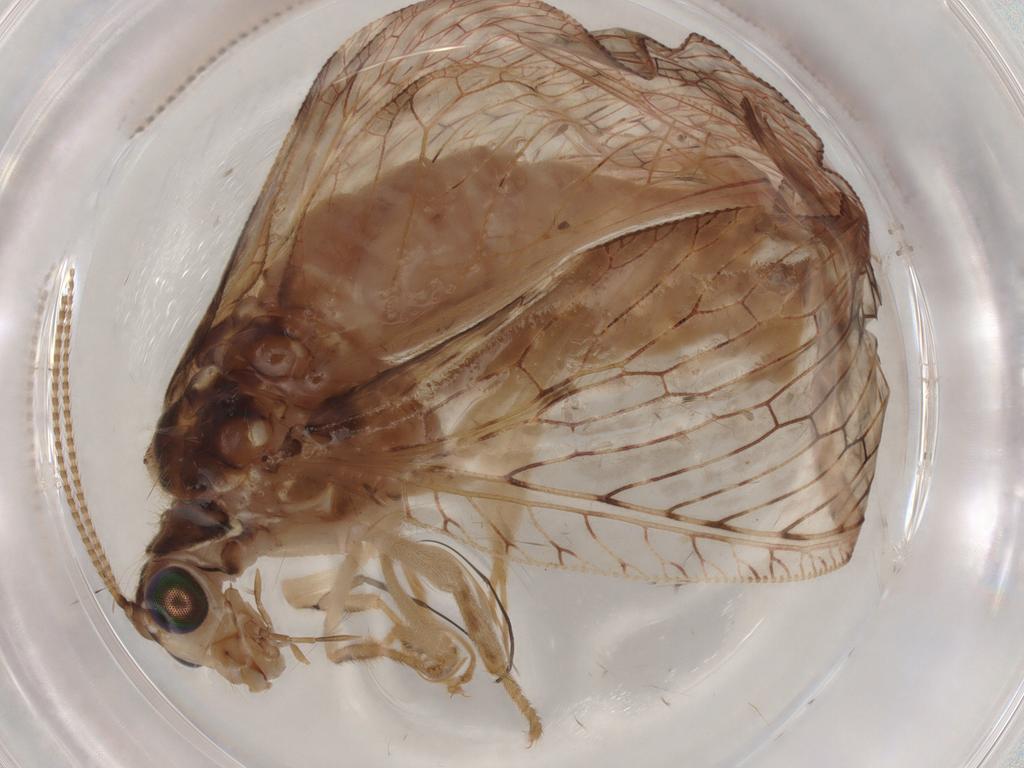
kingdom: Animalia
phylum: Arthropoda
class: Insecta
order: Neuroptera
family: Hemerobiidae
